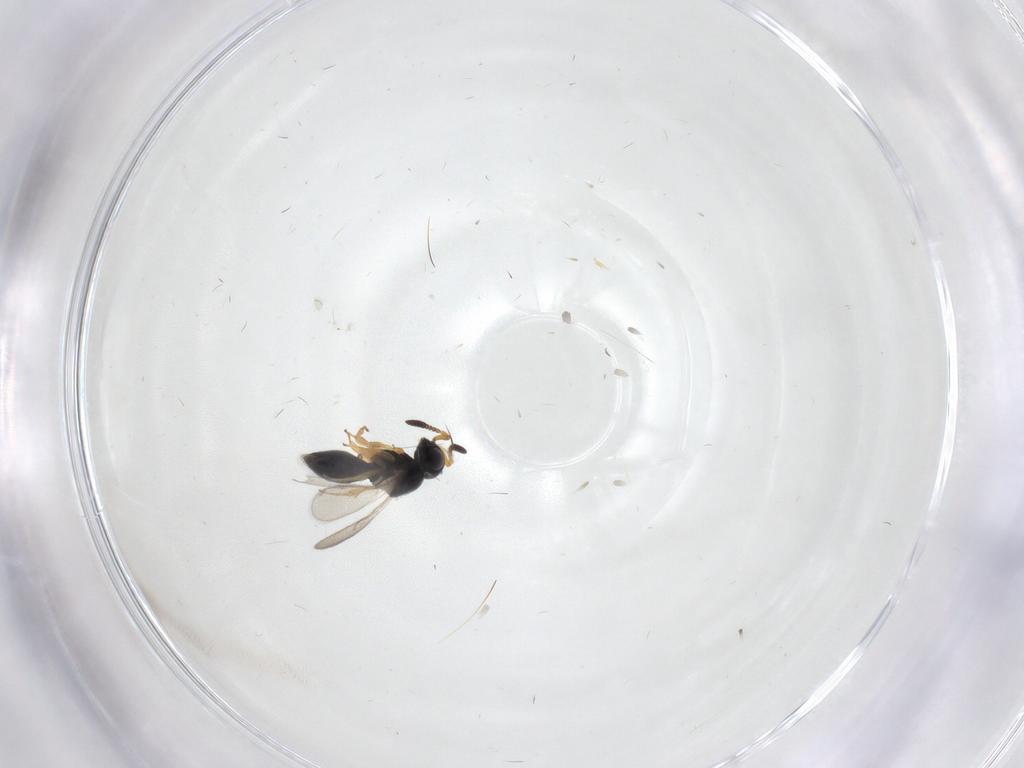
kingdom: Animalia
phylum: Arthropoda
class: Insecta
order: Hymenoptera
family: Scelionidae
